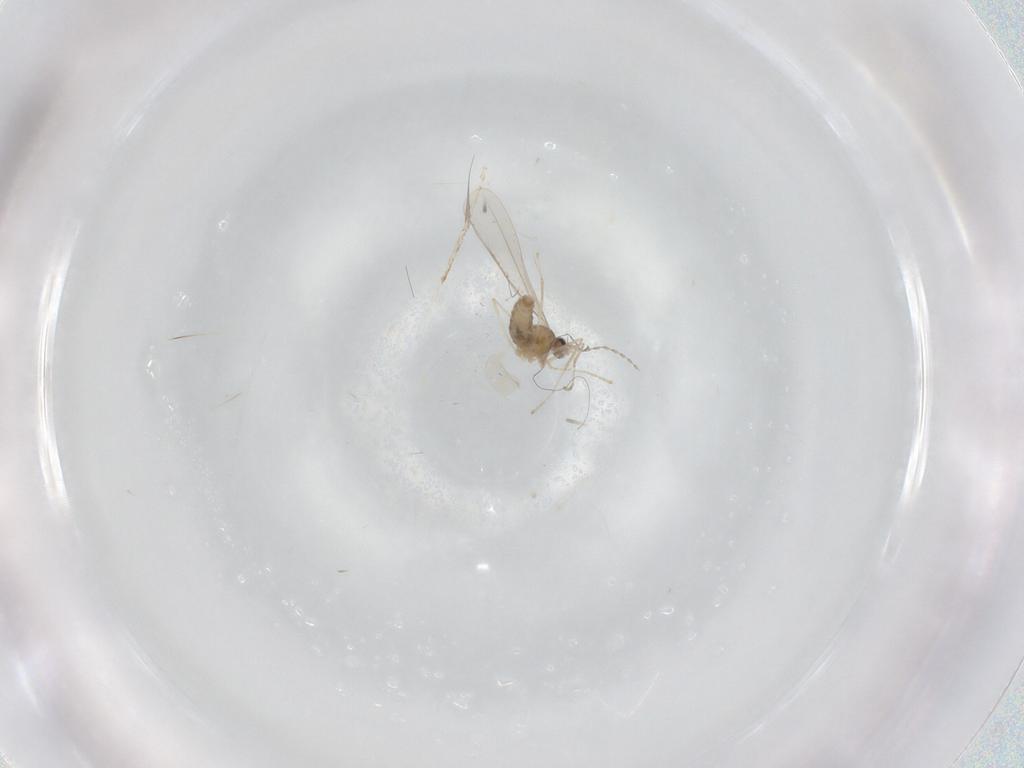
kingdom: Animalia
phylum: Arthropoda
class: Insecta
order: Diptera
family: Cecidomyiidae
